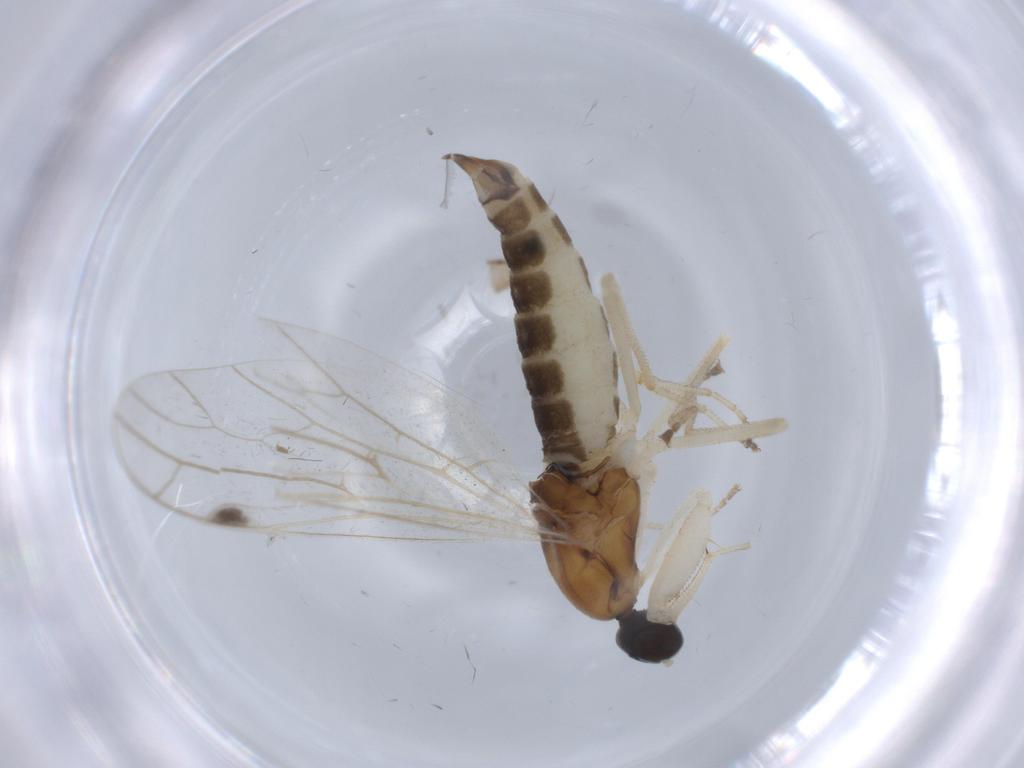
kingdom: Animalia
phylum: Arthropoda
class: Insecta
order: Diptera
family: Empididae
